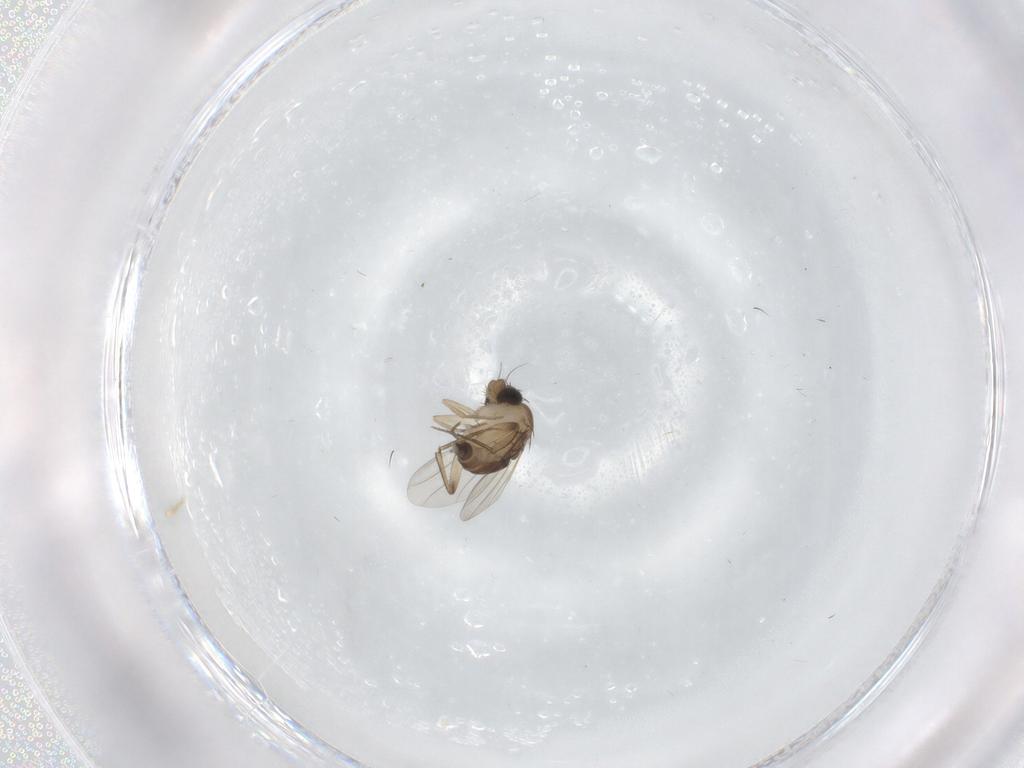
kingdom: Animalia
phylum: Arthropoda
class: Insecta
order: Diptera
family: Phoridae
